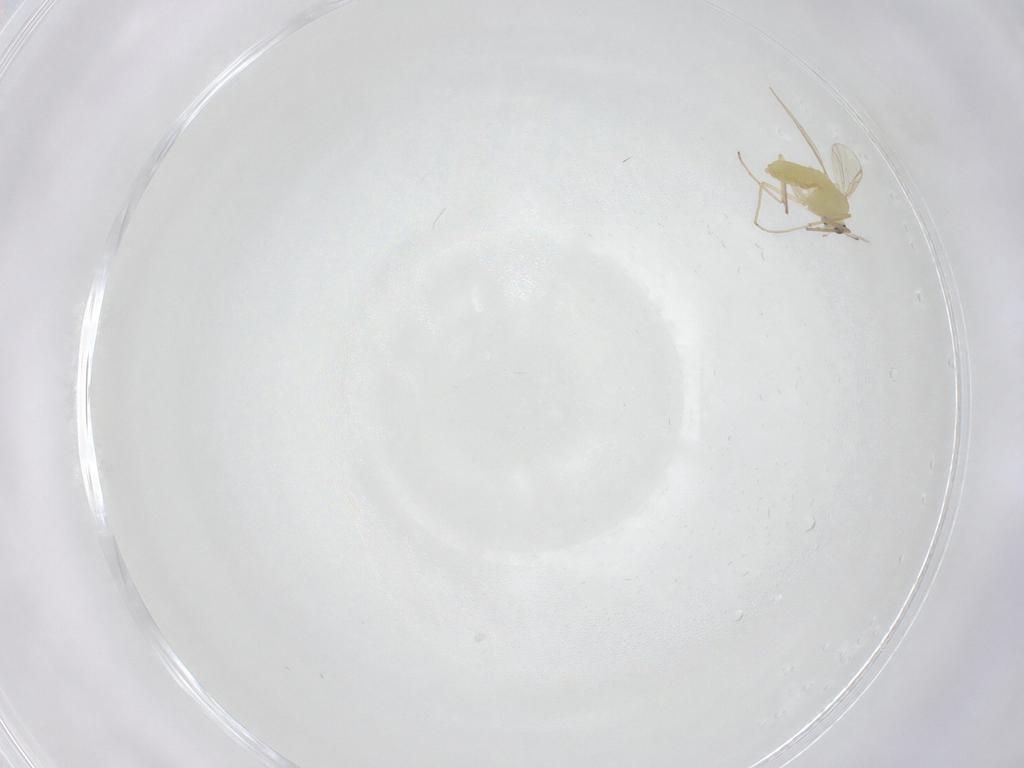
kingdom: Animalia
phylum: Arthropoda
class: Insecta
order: Diptera
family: Chironomidae
